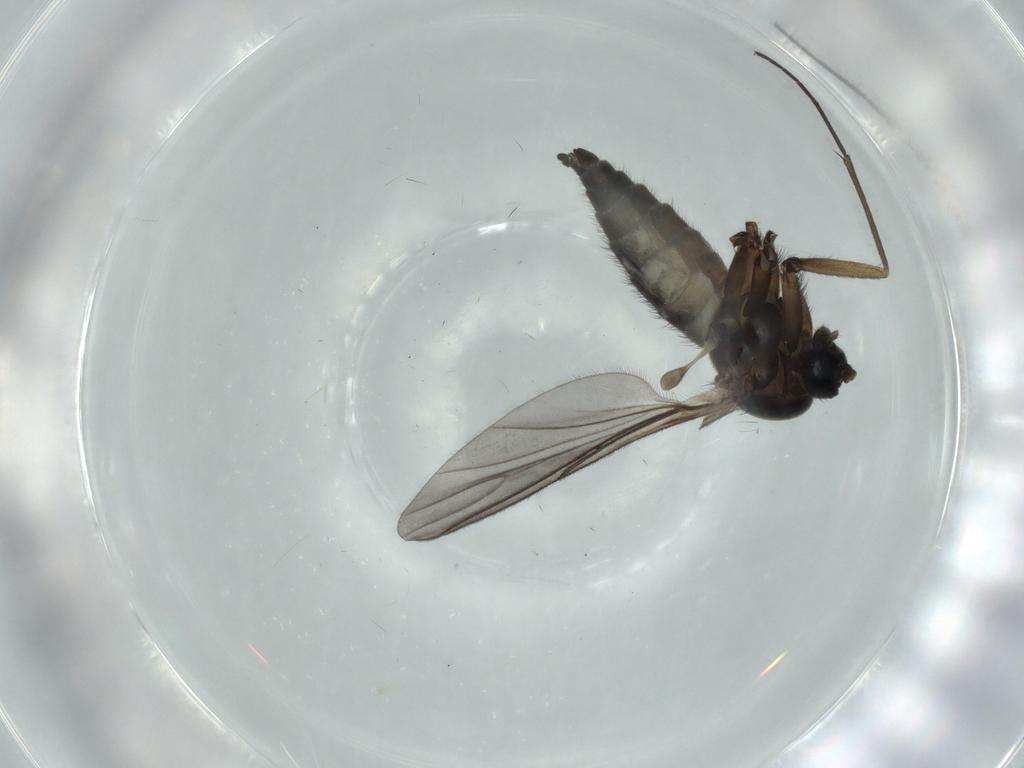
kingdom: Animalia
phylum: Arthropoda
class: Insecta
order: Diptera
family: Sciaridae
